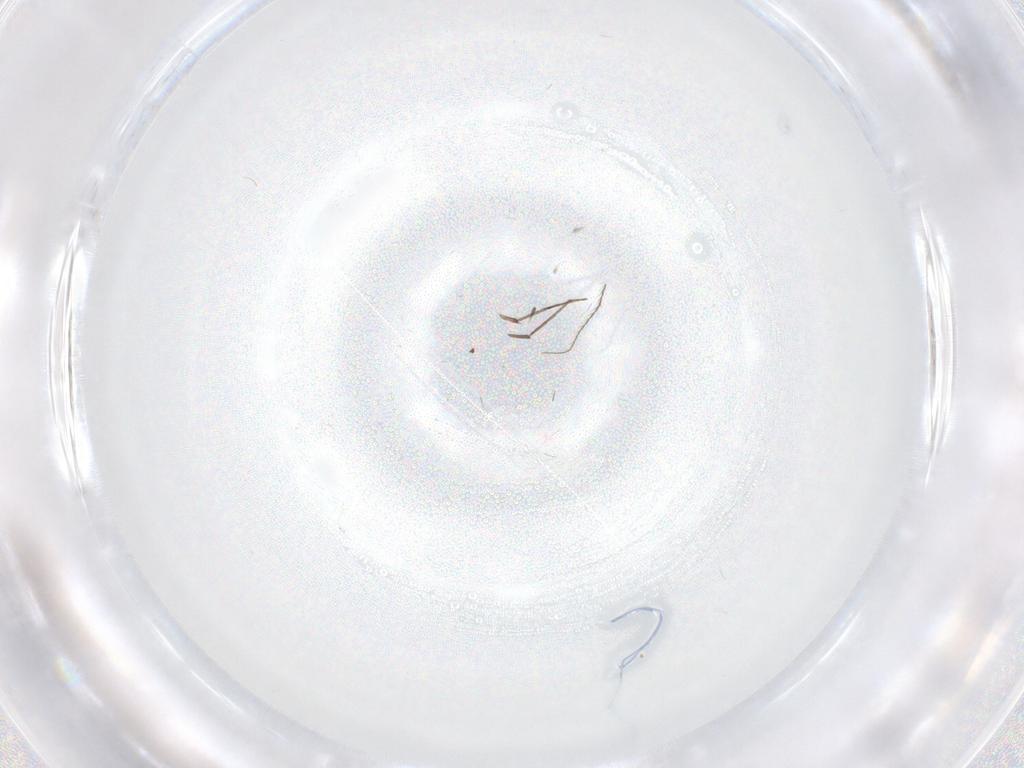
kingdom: Animalia
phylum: Arthropoda
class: Insecta
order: Diptera
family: Chironomidae
